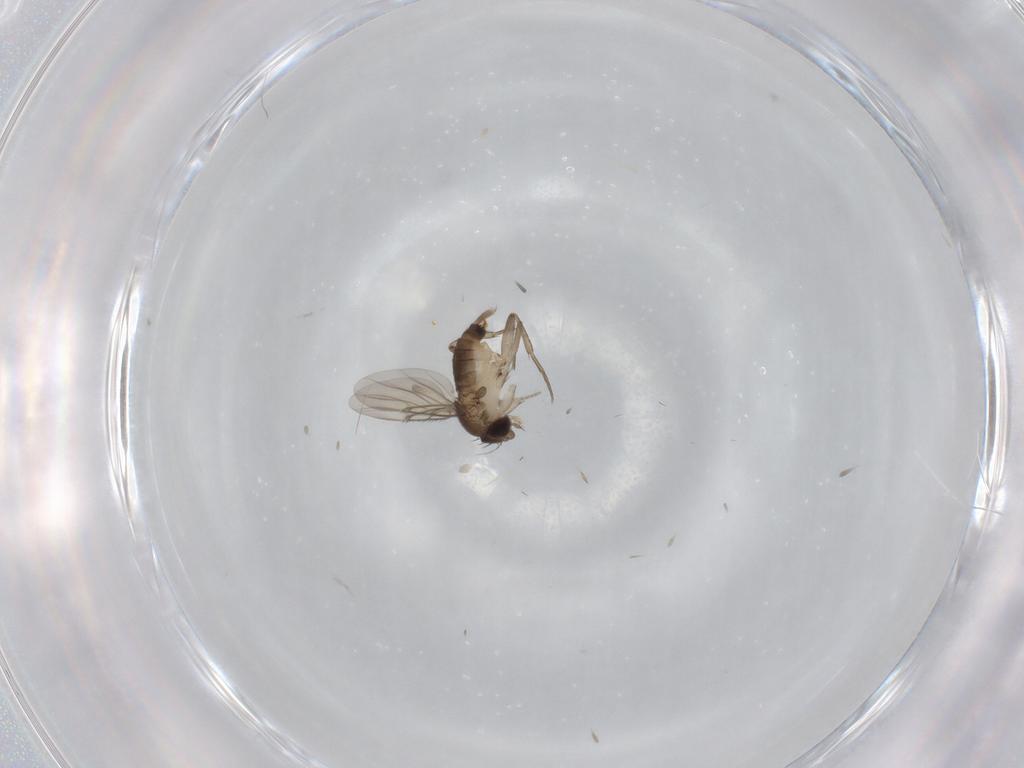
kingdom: Animalia
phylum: Arthropoda
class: Insecta
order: Diptera
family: Phoridae
